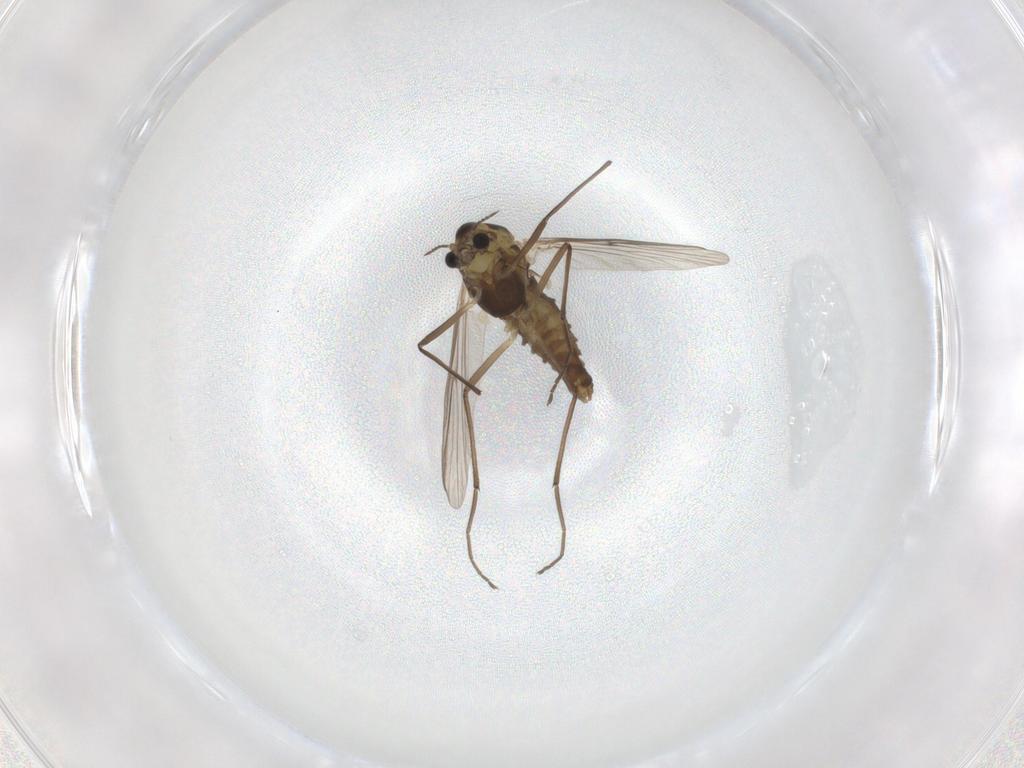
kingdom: Animalia
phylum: Arthropoda
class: Insecta
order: Diptera
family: Chironomidae
